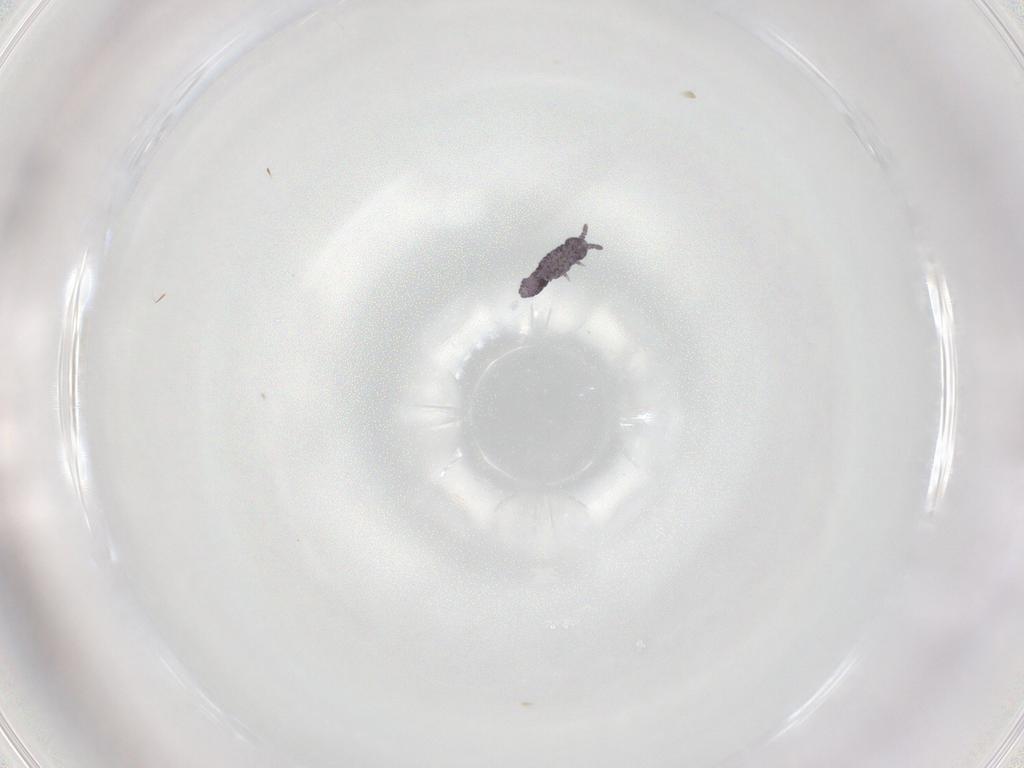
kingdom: Animalia
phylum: Arthropoda
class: Collembola
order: Poduromorpha
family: Brachystomellidae
